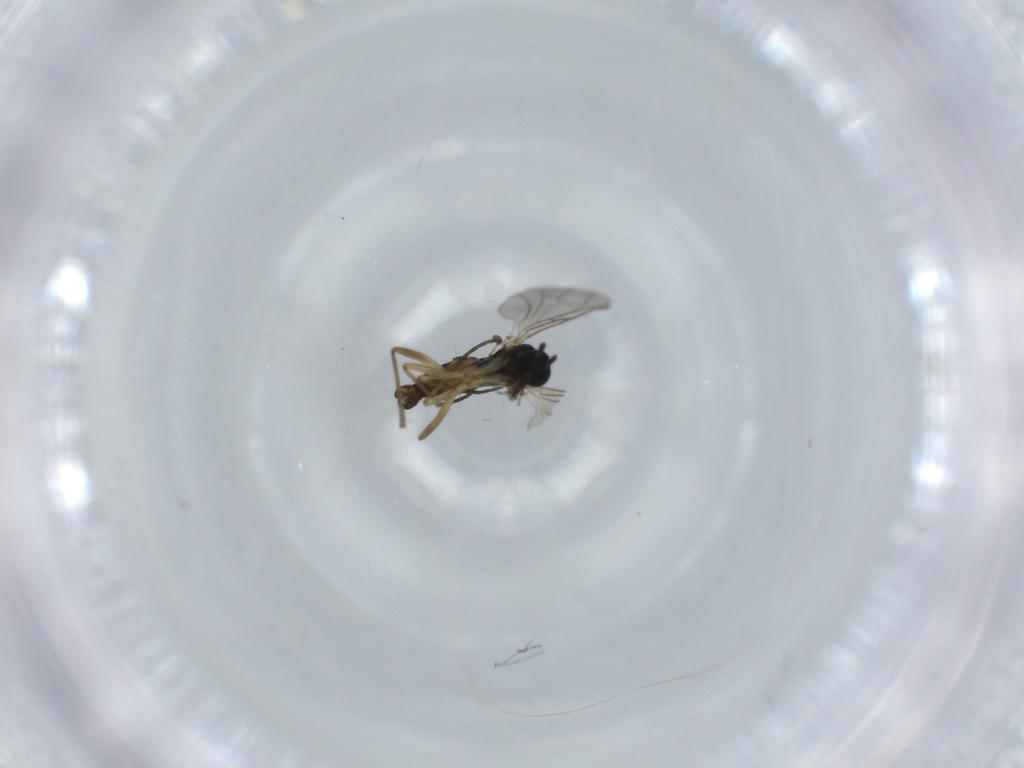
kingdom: Animalia
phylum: Arthropoda
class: Insecta
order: Diptera
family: Sciaridae
